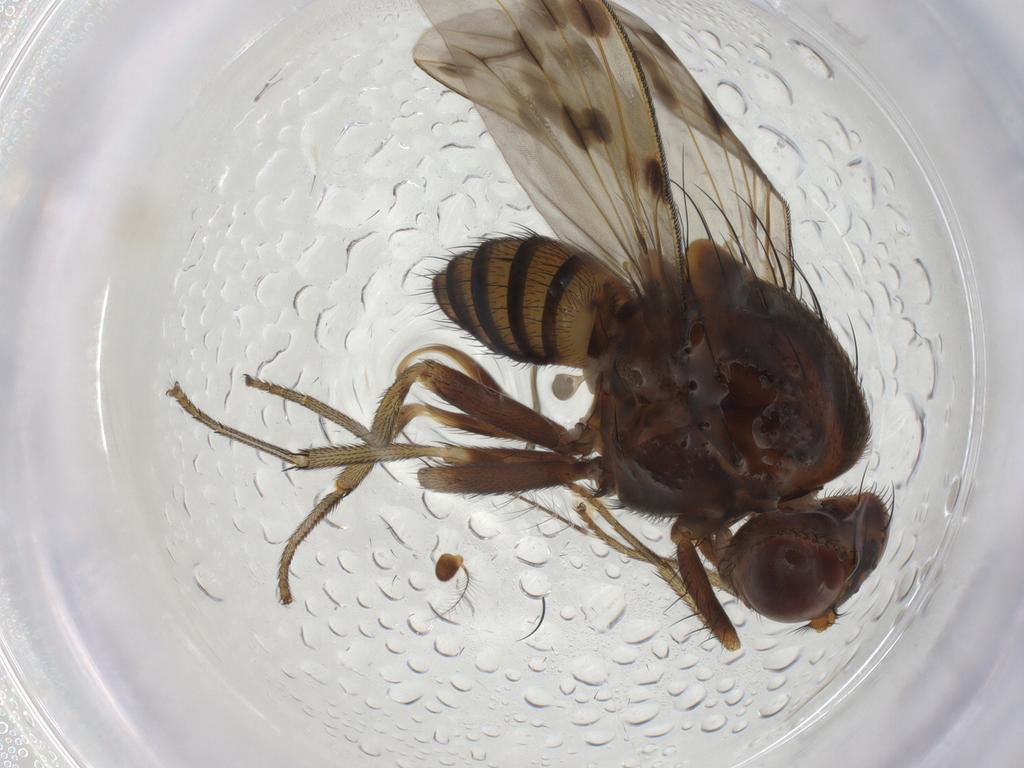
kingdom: Animalia
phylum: Arthropoda
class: Insecta
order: Diptera
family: Lauxaniidae
